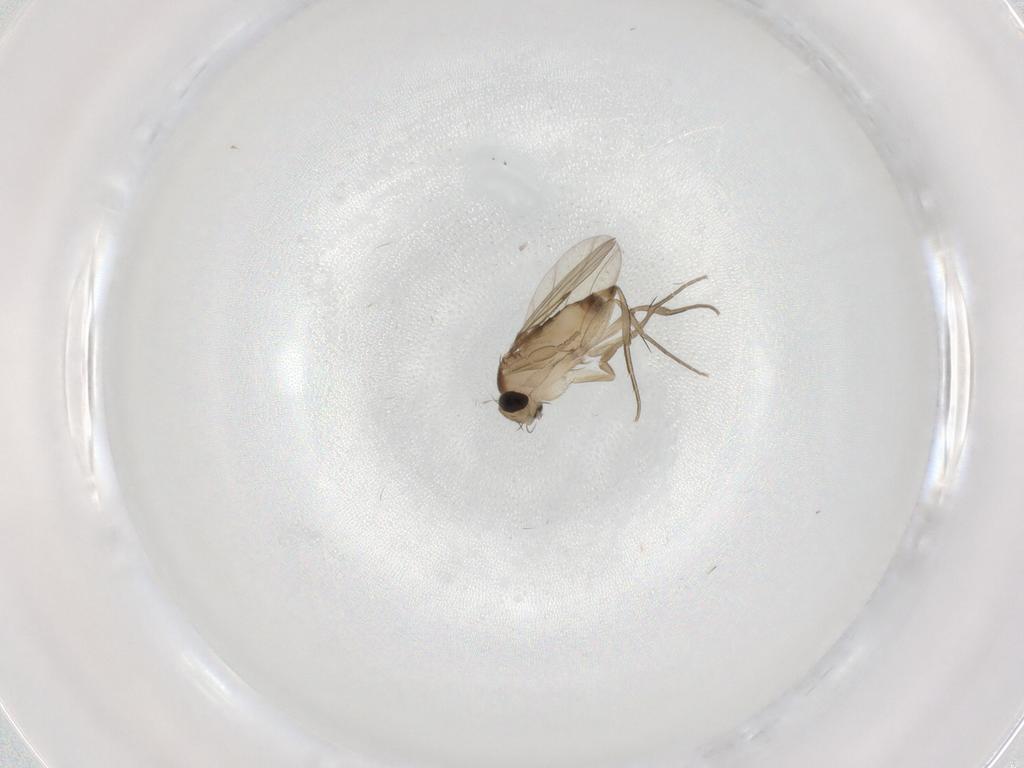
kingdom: Animalia
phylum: Arthropoda
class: Insecta
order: Diptera
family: Phoridae
